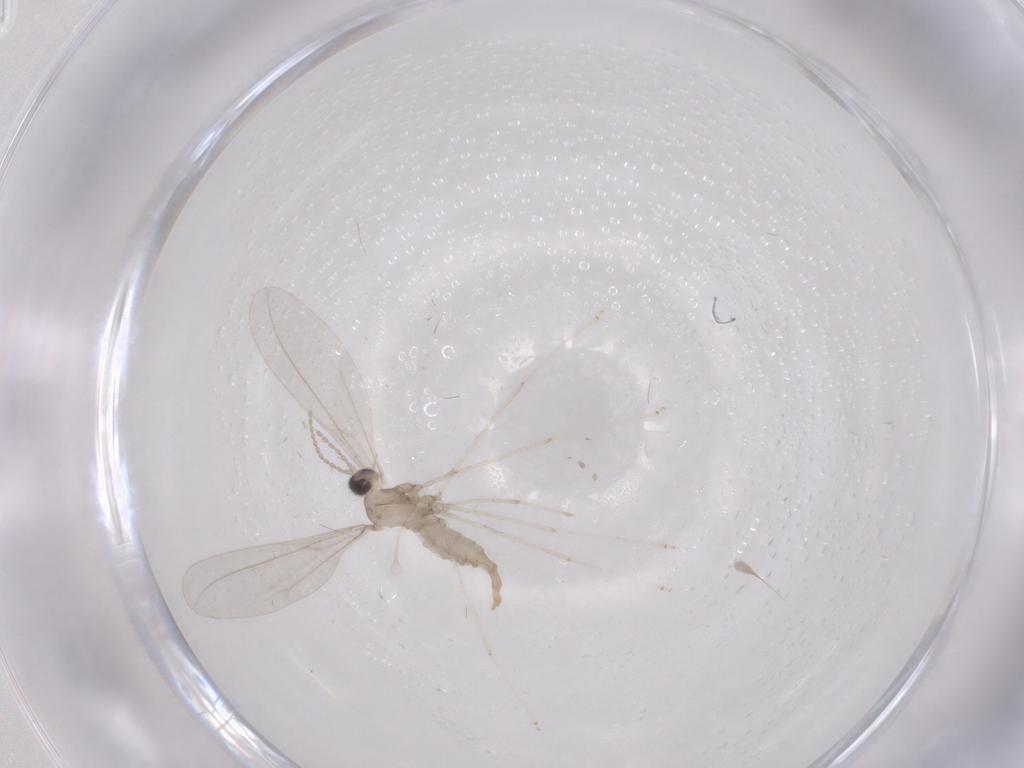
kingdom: Animalia
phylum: Arthropoda
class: Insecta
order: Diptera
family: Cecidomyiidae
